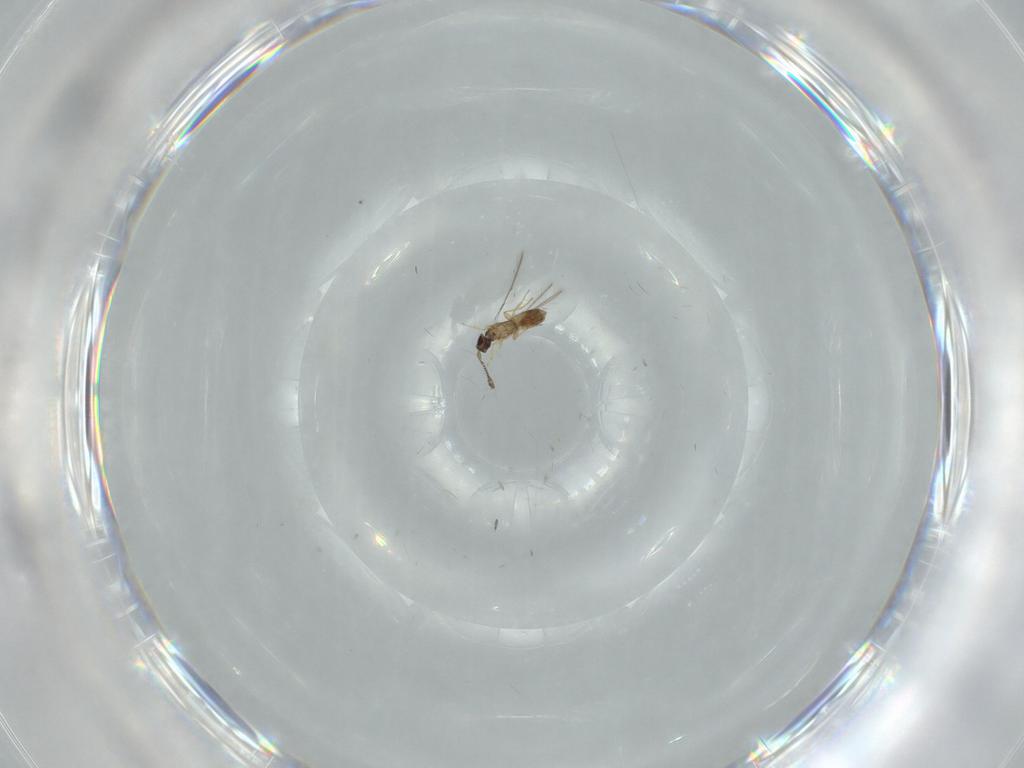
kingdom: Animalia
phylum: Arthropoda
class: Insecta
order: Hymenoptera
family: Mymaridae
